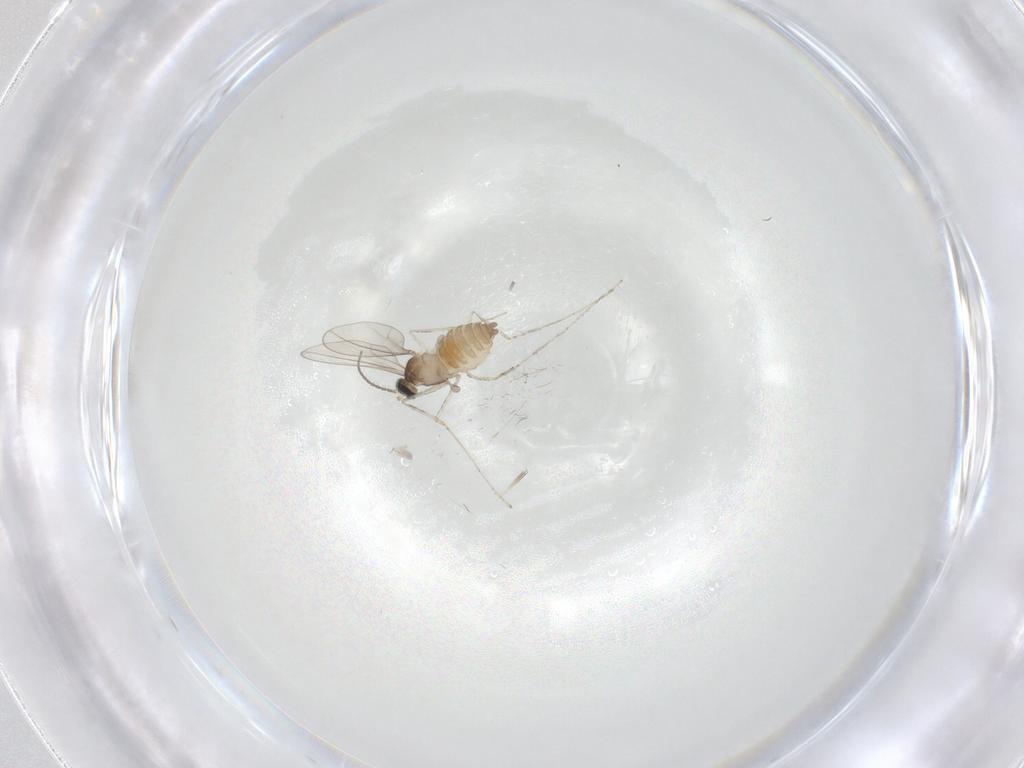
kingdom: Animalia
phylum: Arthropoda
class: Insecta
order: Diptera
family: Cecidomyiidae
